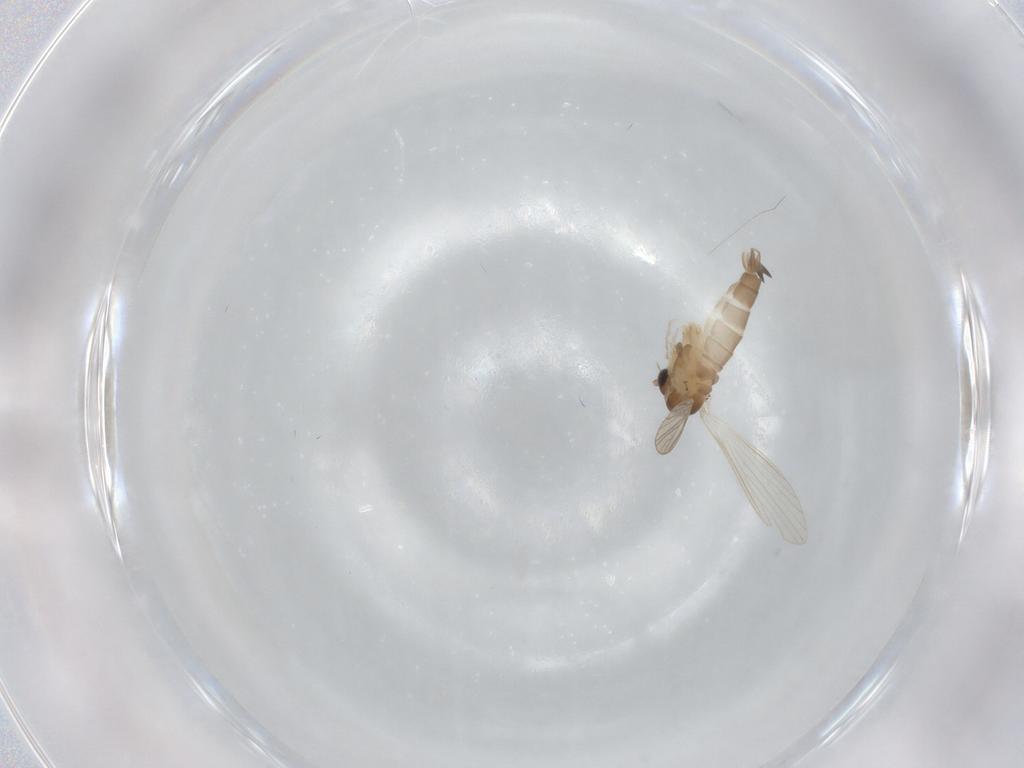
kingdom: Animalia
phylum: Arthropoda
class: Insecta
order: Diptera
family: Psychodidae
